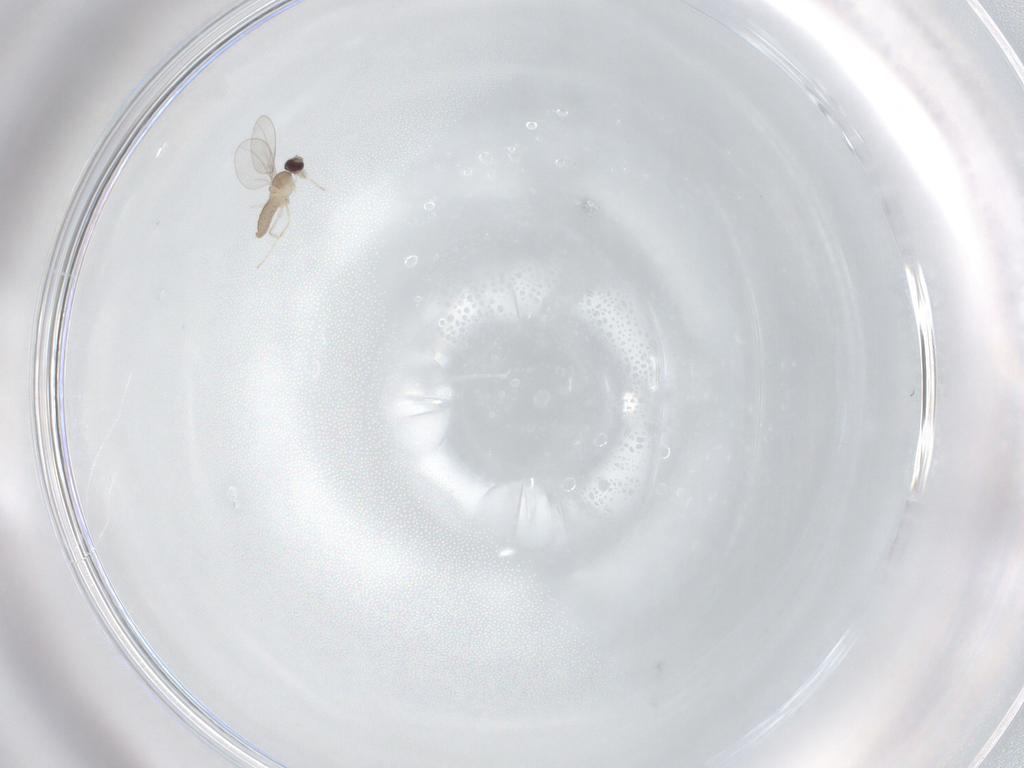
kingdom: Animalia
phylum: Arthropoda
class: Insecta
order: Diptera
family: Cecidomyiidae
